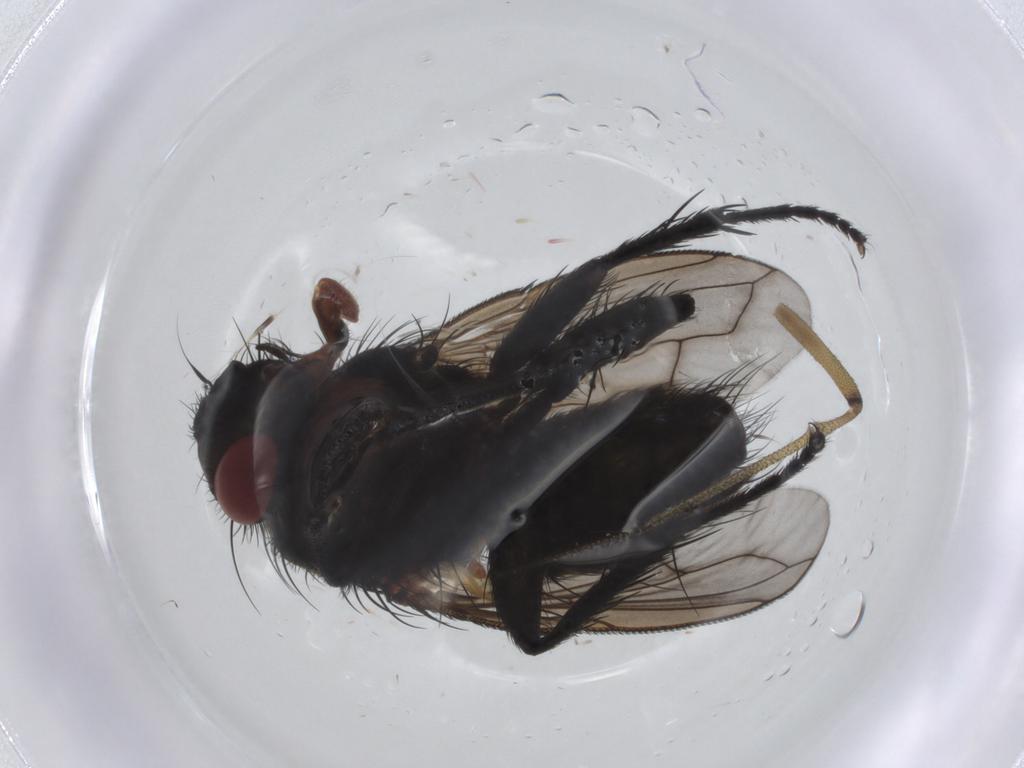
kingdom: Animalia
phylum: Arthropoda
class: Insecta
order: Diptera
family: Tachinidae
